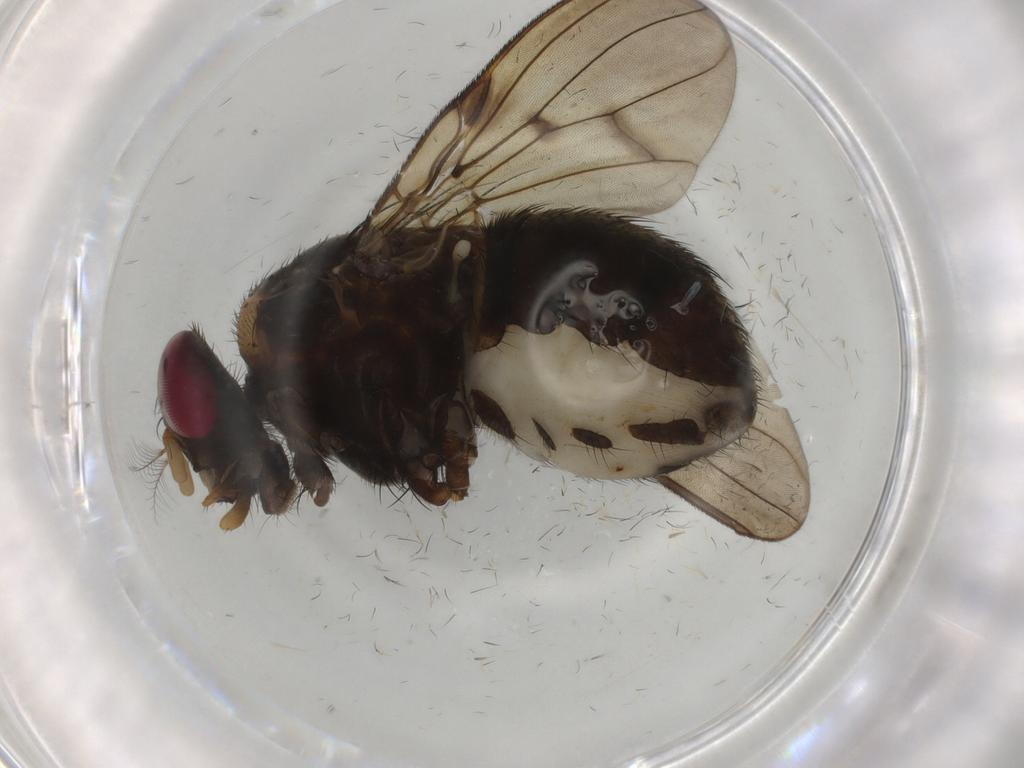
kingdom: Animalia
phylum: Arthropoda
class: Insecta
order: Diptera
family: Muscidae
